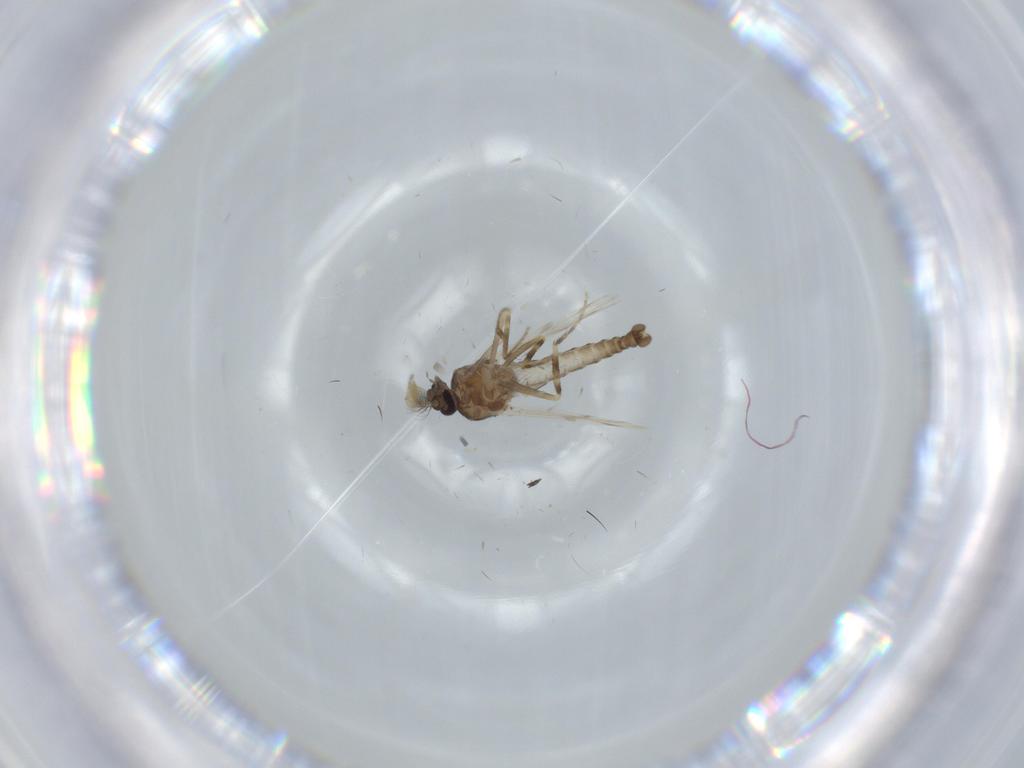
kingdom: Animalia
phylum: Arthropoda
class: Insecta
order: Diptera
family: Ceratopogonidae
